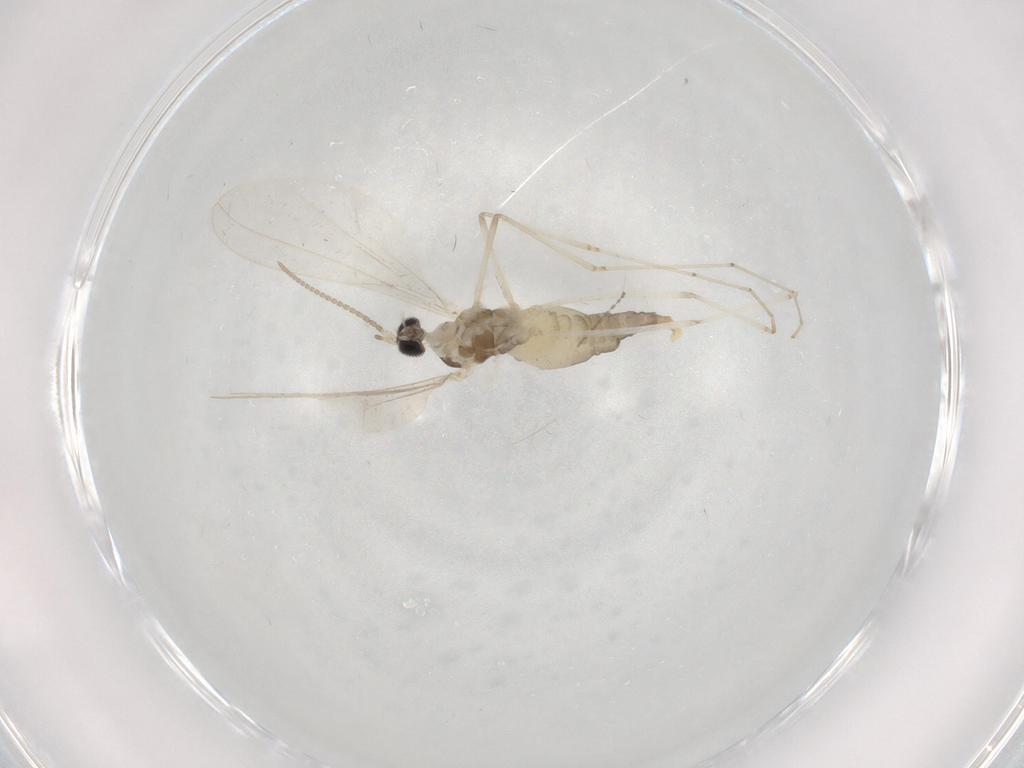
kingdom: Animalia
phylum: Arthropoda
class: Insecta
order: Diptera
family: Cecidomyiidae
